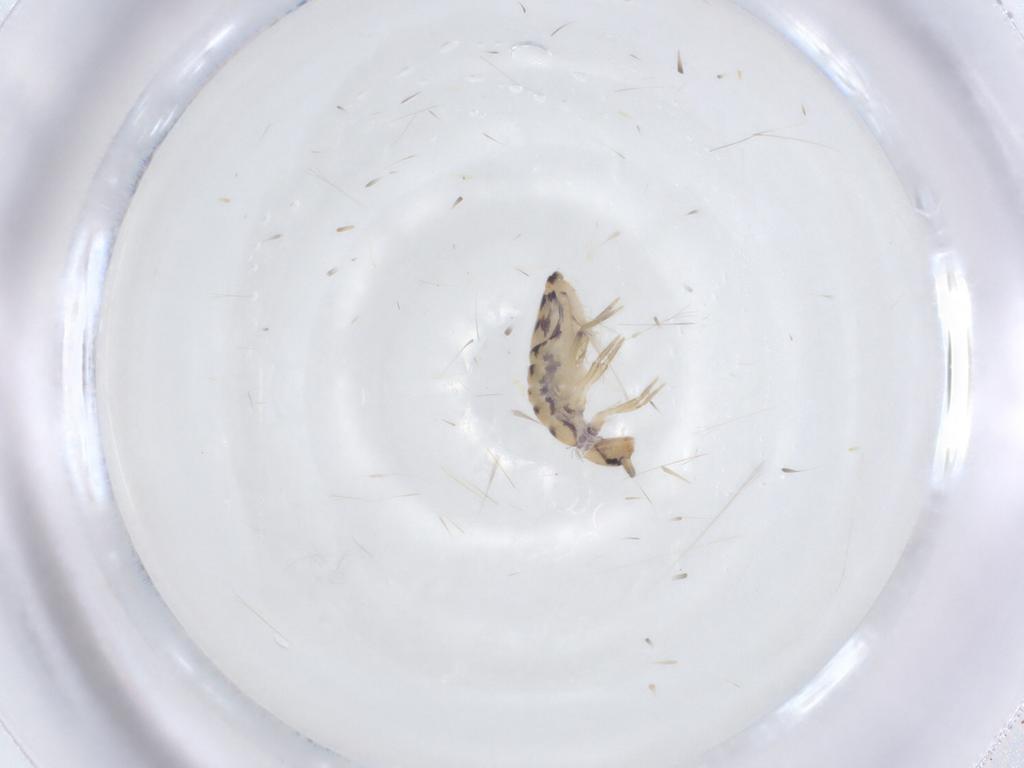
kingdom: Animalia
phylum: Arthropoda
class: Collembola
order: Entomobryomorpha
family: Entomobryidae
